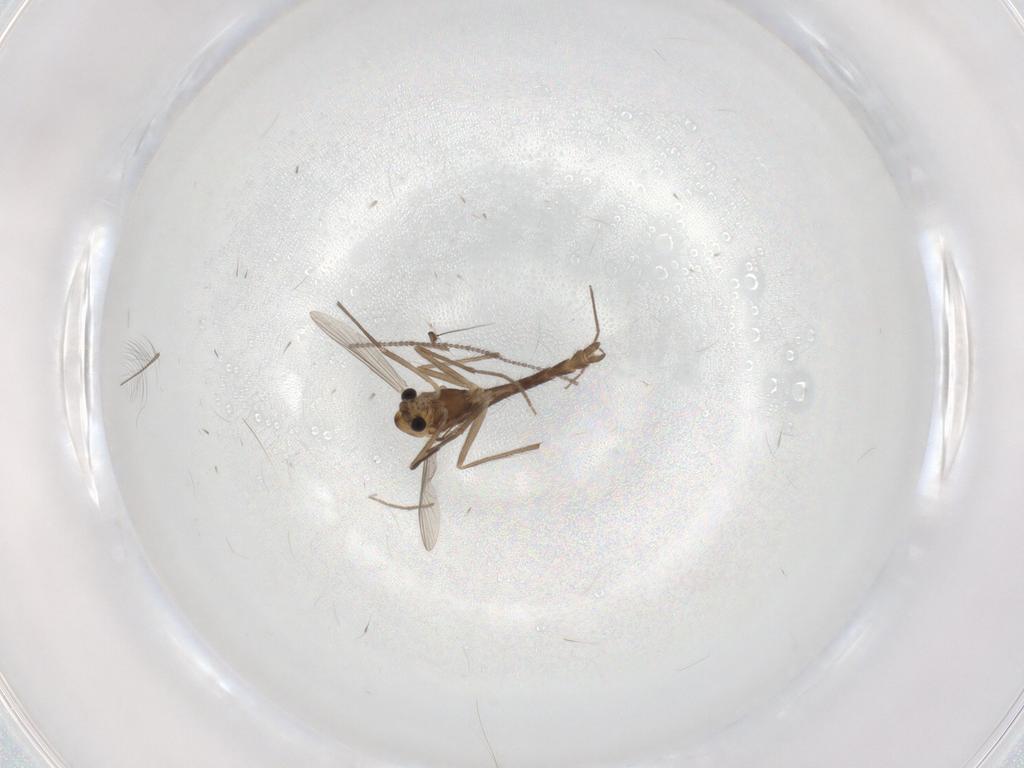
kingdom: Animalia
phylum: Arthropoda
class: Insecta
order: Diptera
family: Chironomidae
